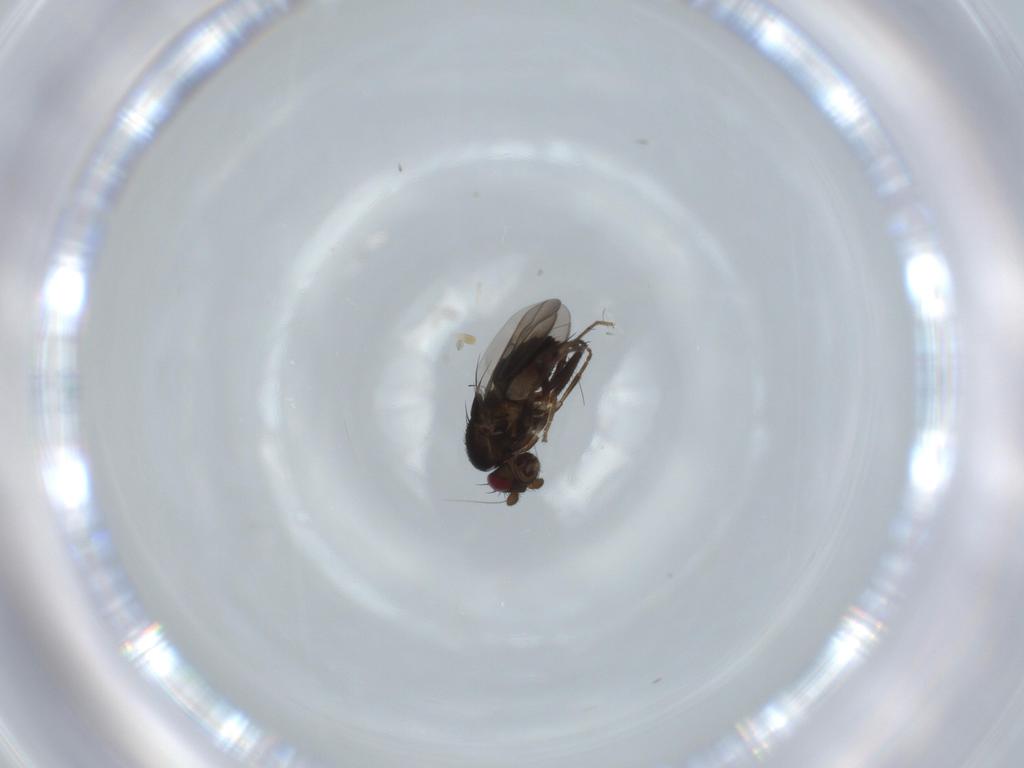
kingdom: Animalia
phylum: Arthropoda
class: Insecta
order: Diptera
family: Sphaeroceridae
